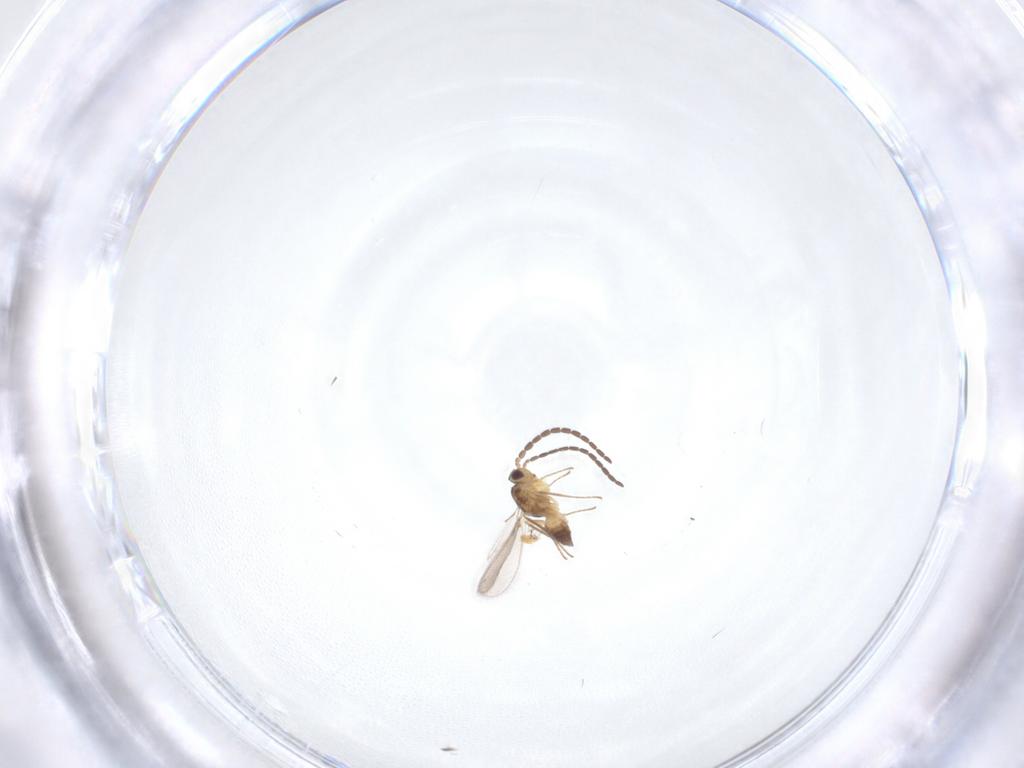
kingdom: Animalia
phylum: Arthropoda
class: Insecta
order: Hymenoptera
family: Mymaridae
